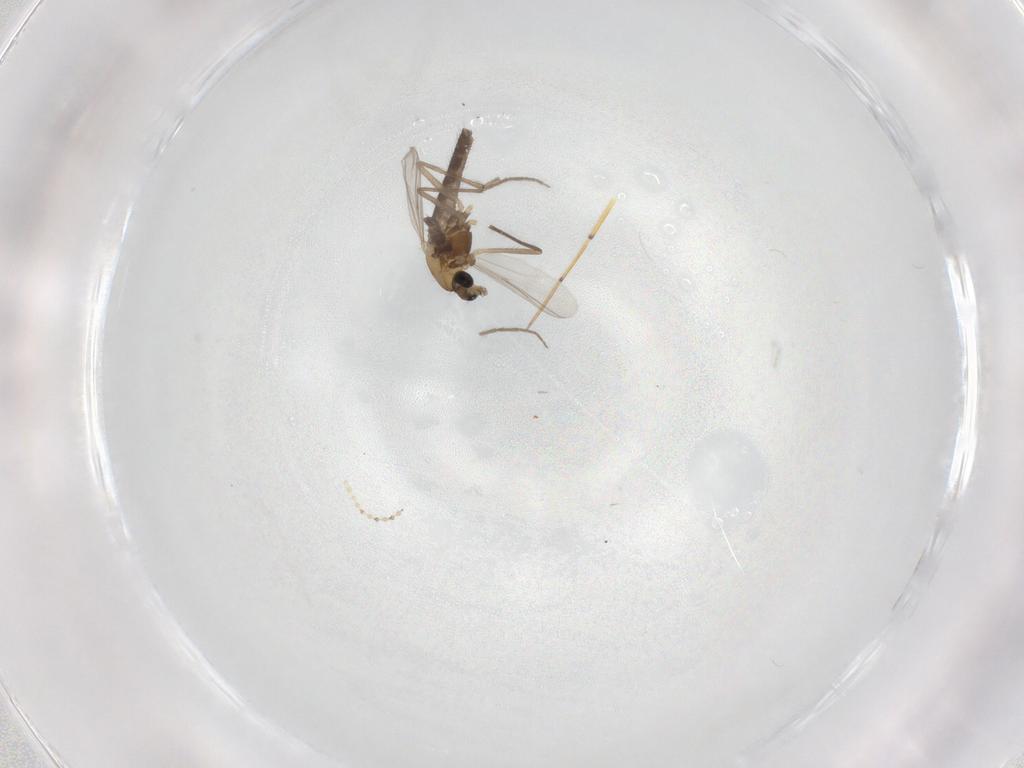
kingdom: Animalia
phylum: Arthropoda
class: Insecta
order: Diptera
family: Chironomidae
